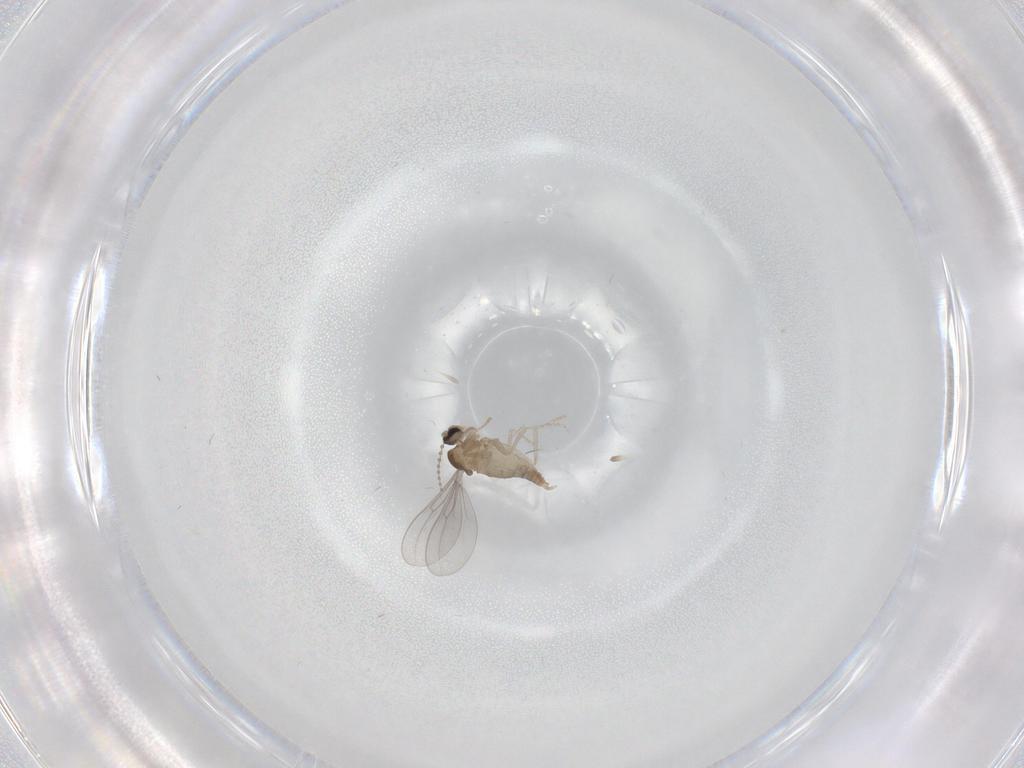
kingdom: Animalia
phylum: Arthropoda
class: Insecta
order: Diptera
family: Cecidomyiidae
